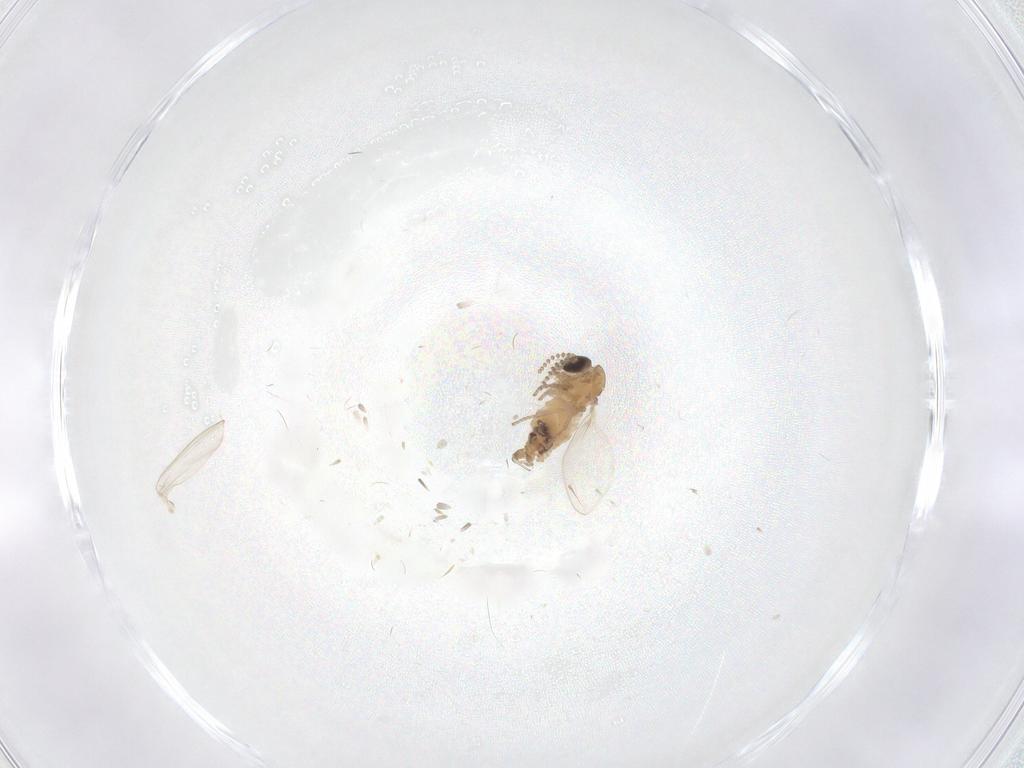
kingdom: Animalia
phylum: Arthropoda
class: Insecta
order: Diptera
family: Psychodidae
